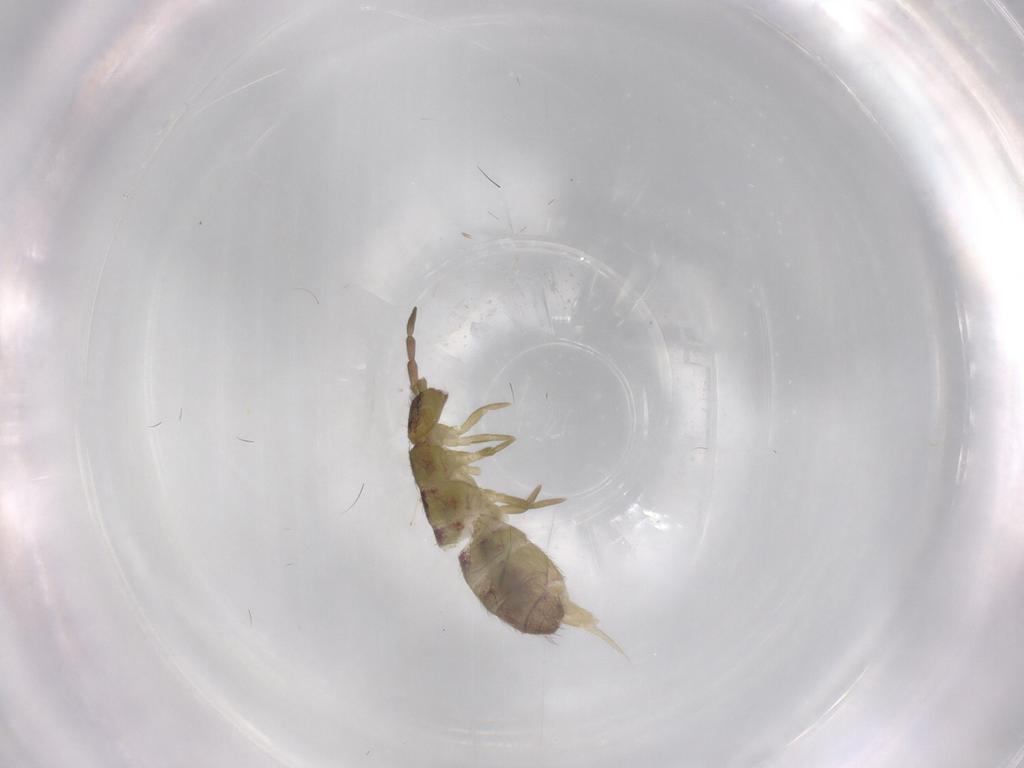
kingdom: Animalia
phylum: Arthropoda
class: Collembola
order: Entomobryomorpha
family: Isotomidae
